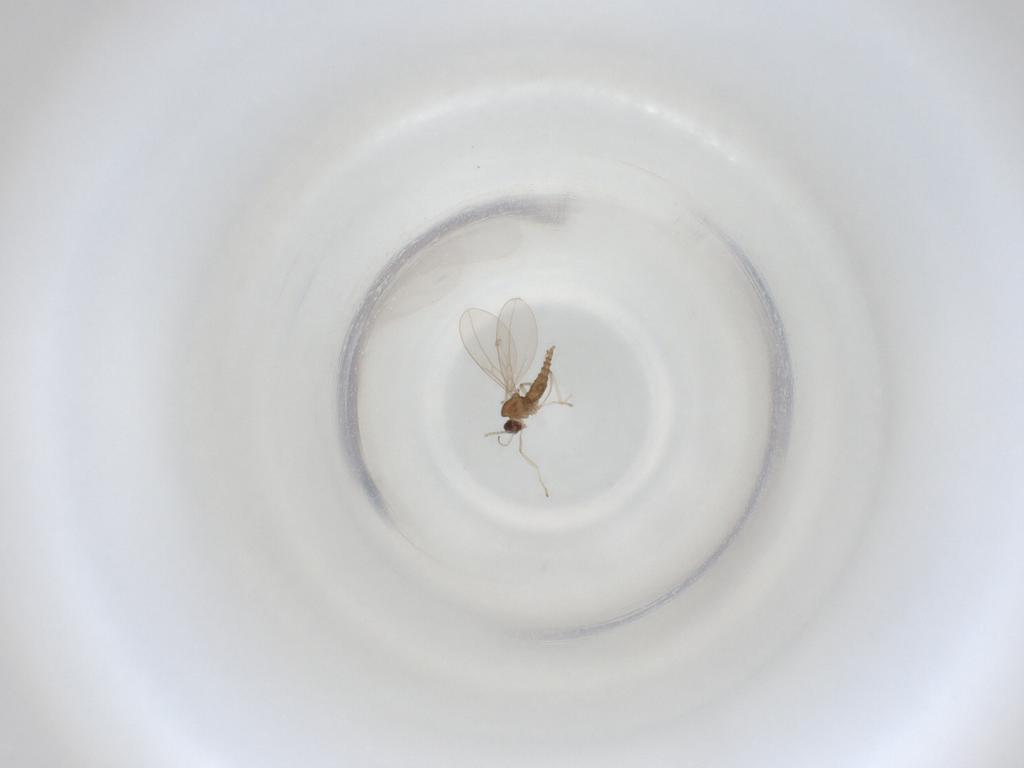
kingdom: Animalia
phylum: Arthropoda
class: Insecta
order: Diptera
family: Cecidomyiidae
